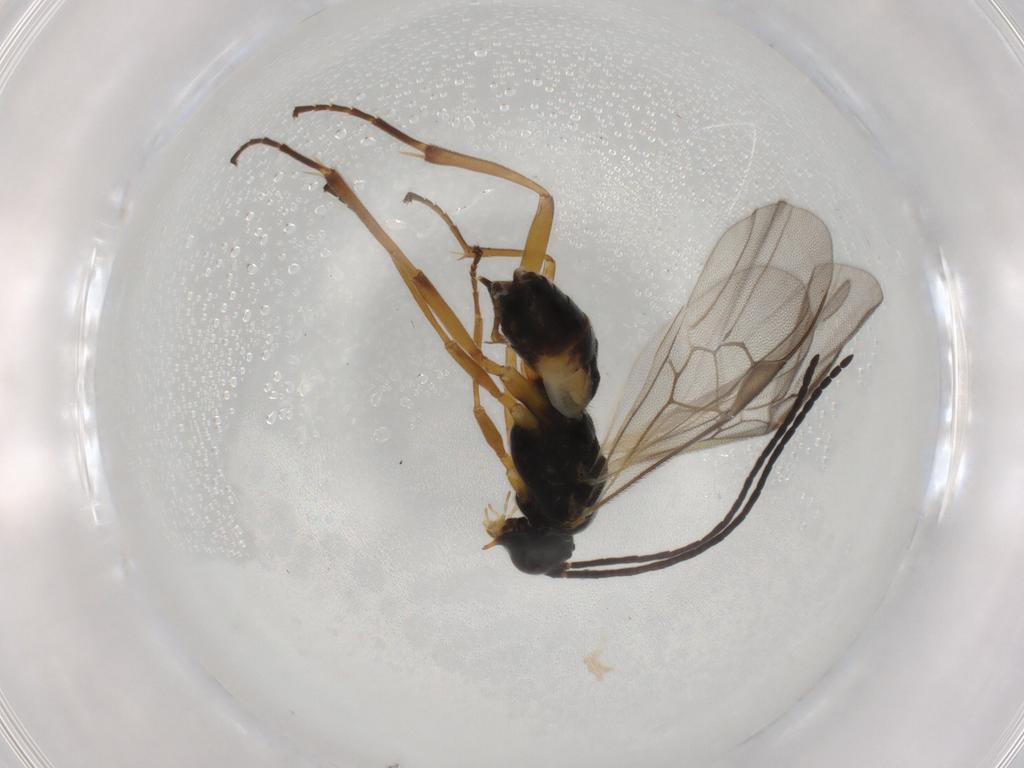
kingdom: Animalia
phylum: Arthropoda
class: Insecta
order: Hymenoptera
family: Braconidae
